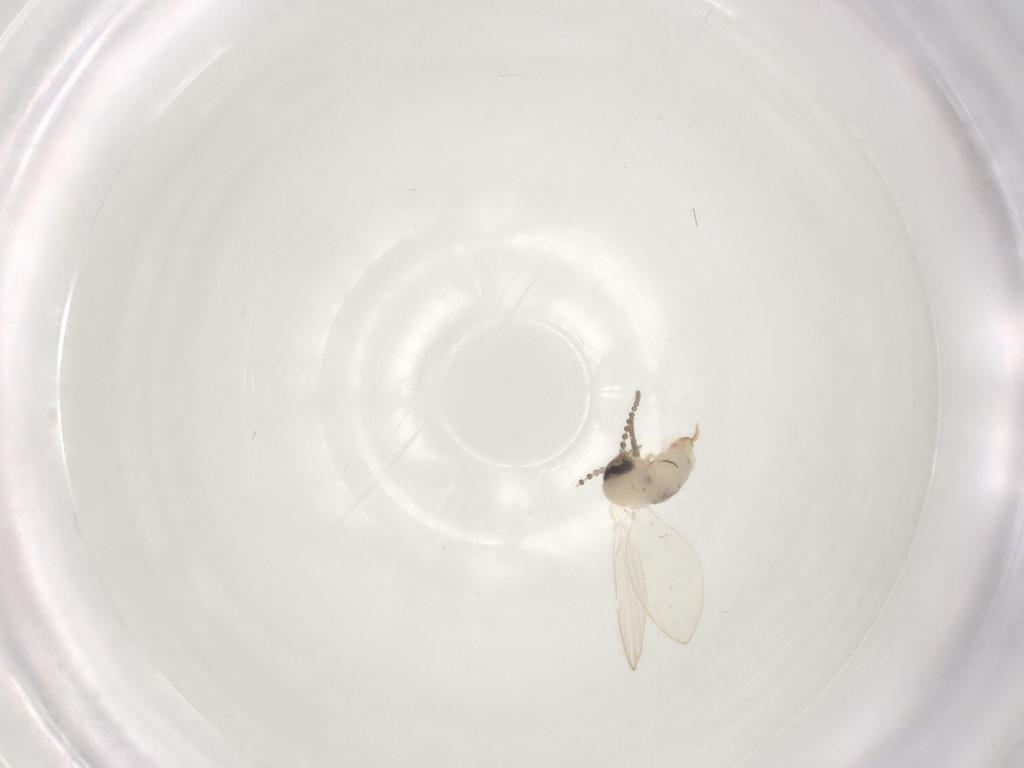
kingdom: Animalia
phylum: Arthropoda
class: Insecta
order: Diptera
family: Psychodidae
